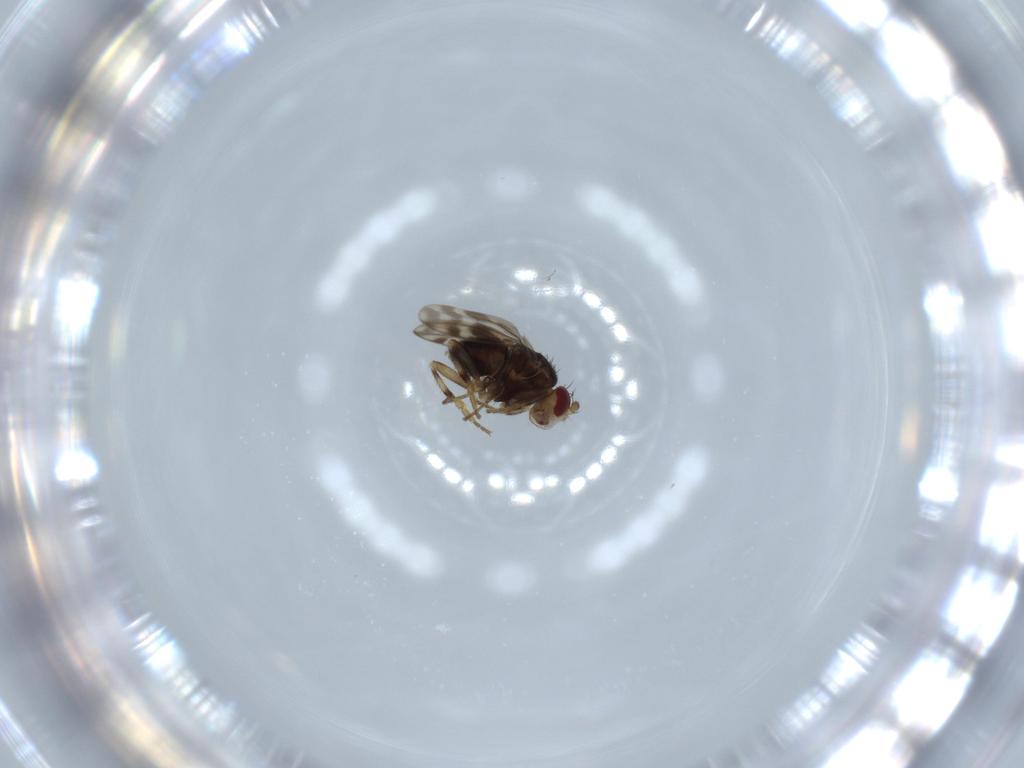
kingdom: Animalia
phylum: Arthropoda
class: Insecta
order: Diptera
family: Sphaeroceridae
